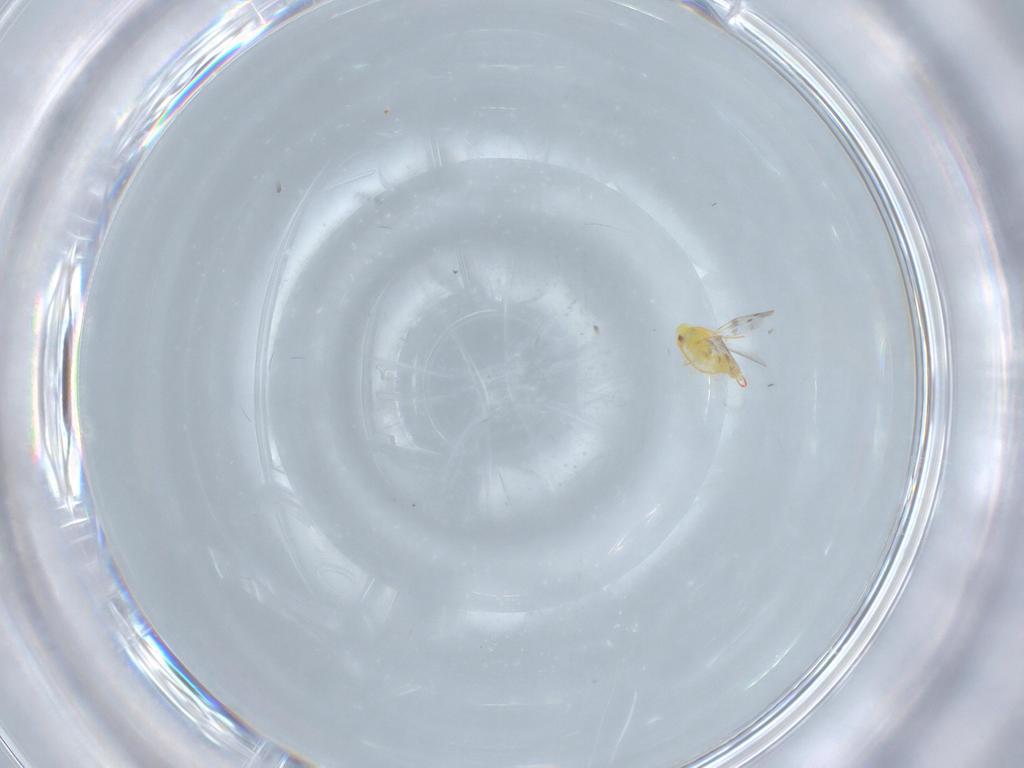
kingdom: Animalia
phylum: Arthropoda
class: Insecta
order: Hemiptera
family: Aleyrodidae
